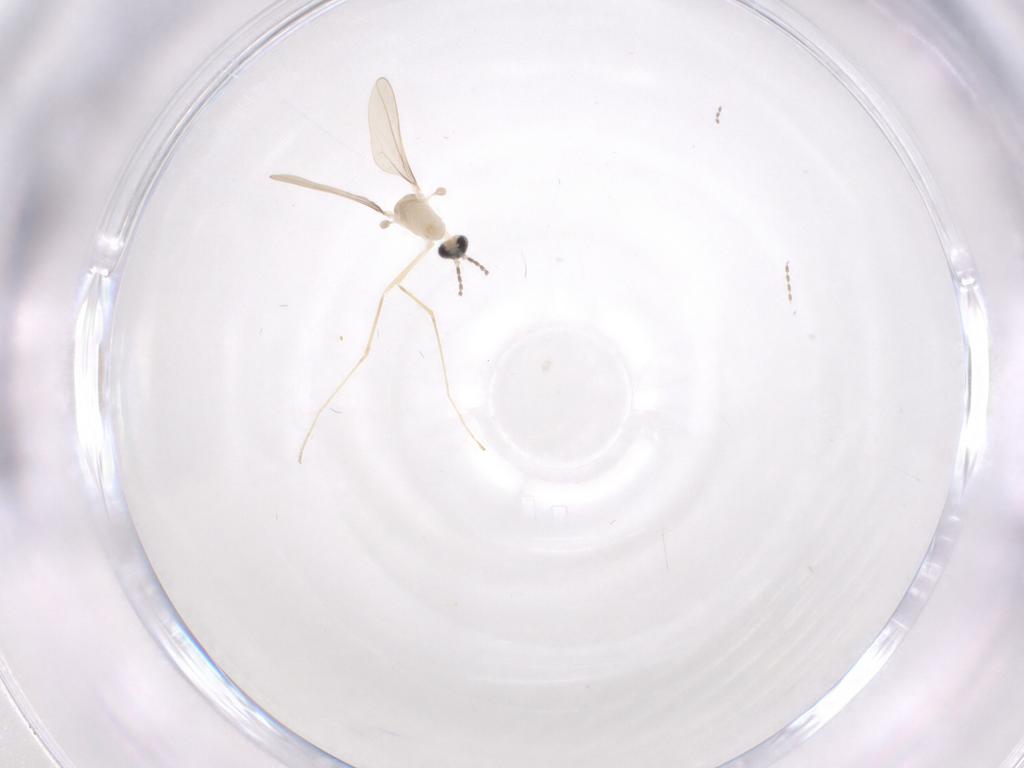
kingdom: Animalia
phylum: Arthropoda
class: Insecta
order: Diptera
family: Cecidomyiidae
